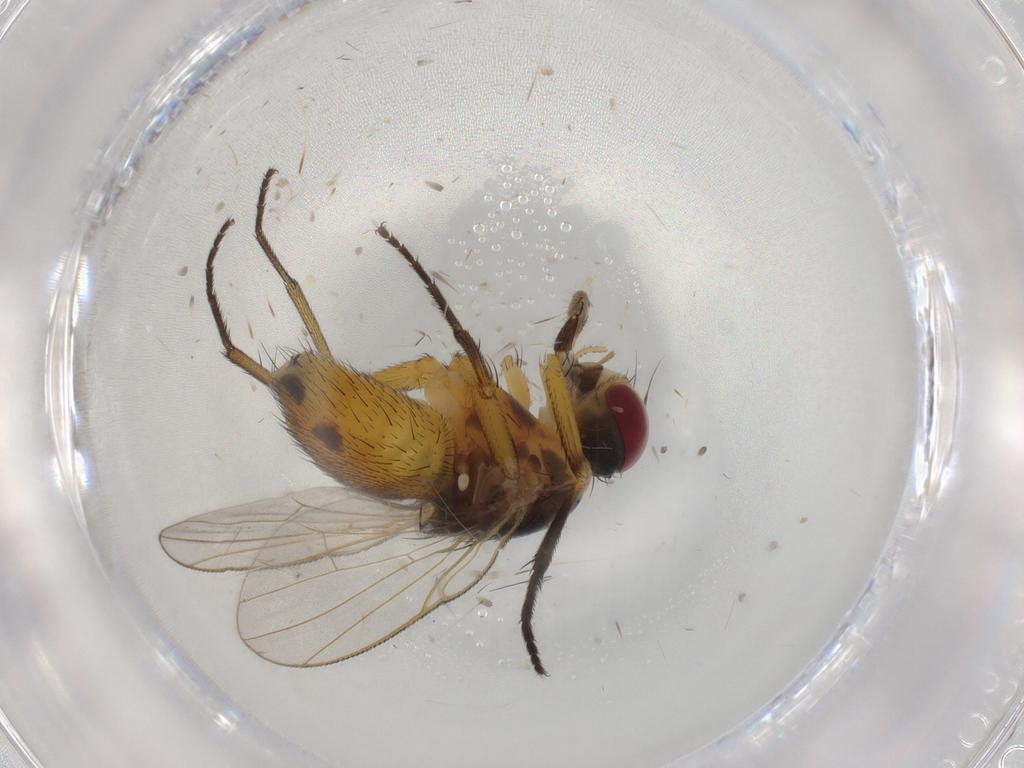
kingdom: Animalia
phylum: Arthropoda
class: Insecta
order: Diptera
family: Muscidae
